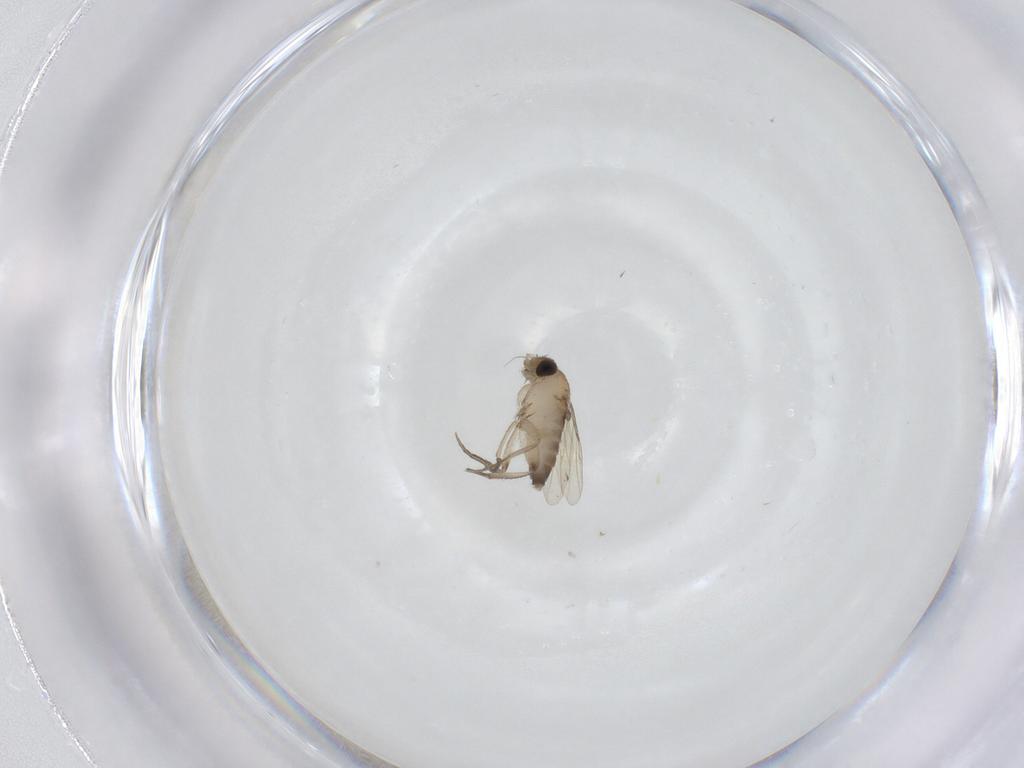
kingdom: Animalia
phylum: Arthropoda
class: Insecta
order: Diptera
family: Phoridae
